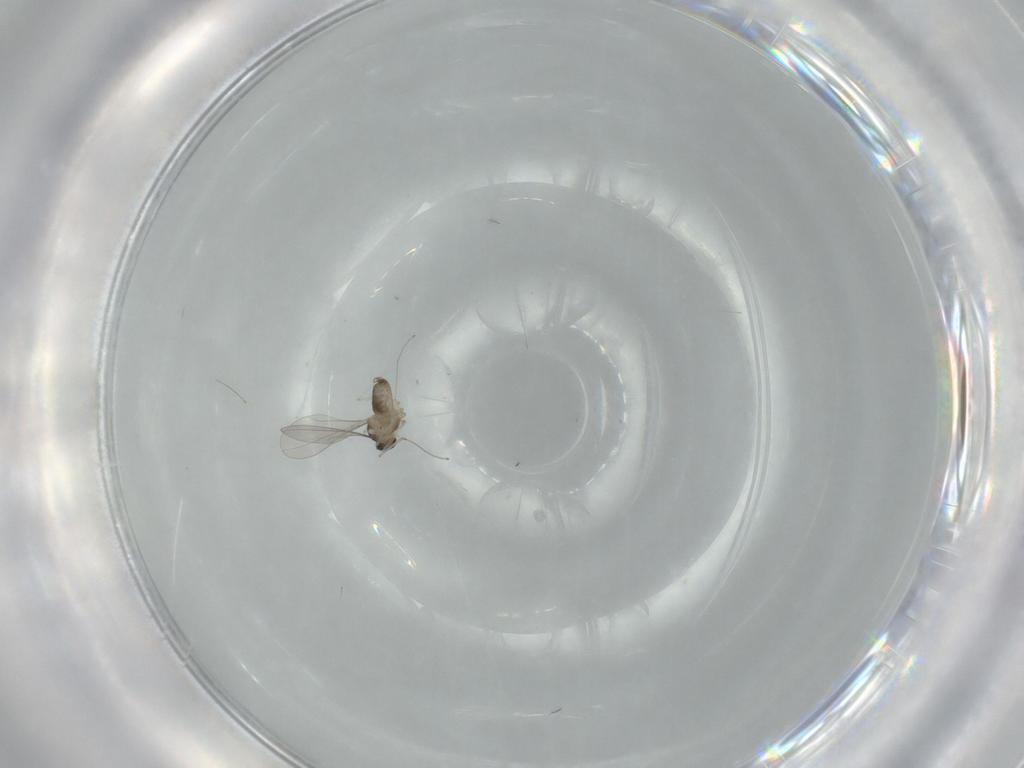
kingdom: Animalia
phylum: Arthropoda
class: Insecta
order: Diptera
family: Cecidomyiidae
